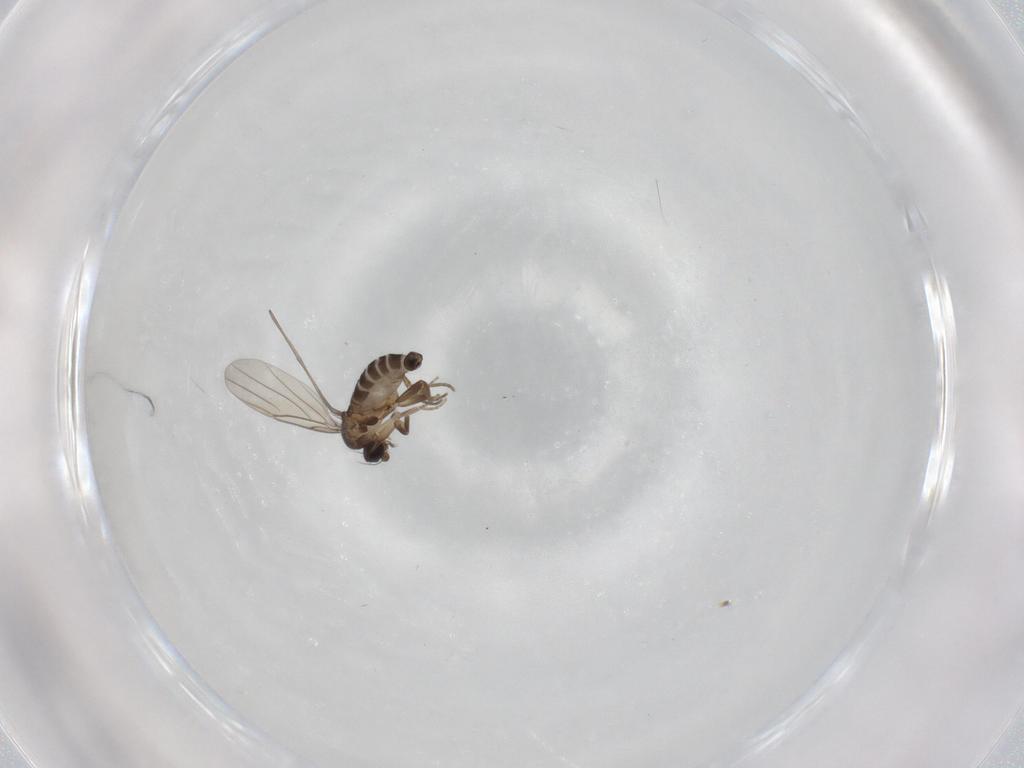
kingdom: Animalia
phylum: Arthropoda
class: Insecta
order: Diptera
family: Phoridae
